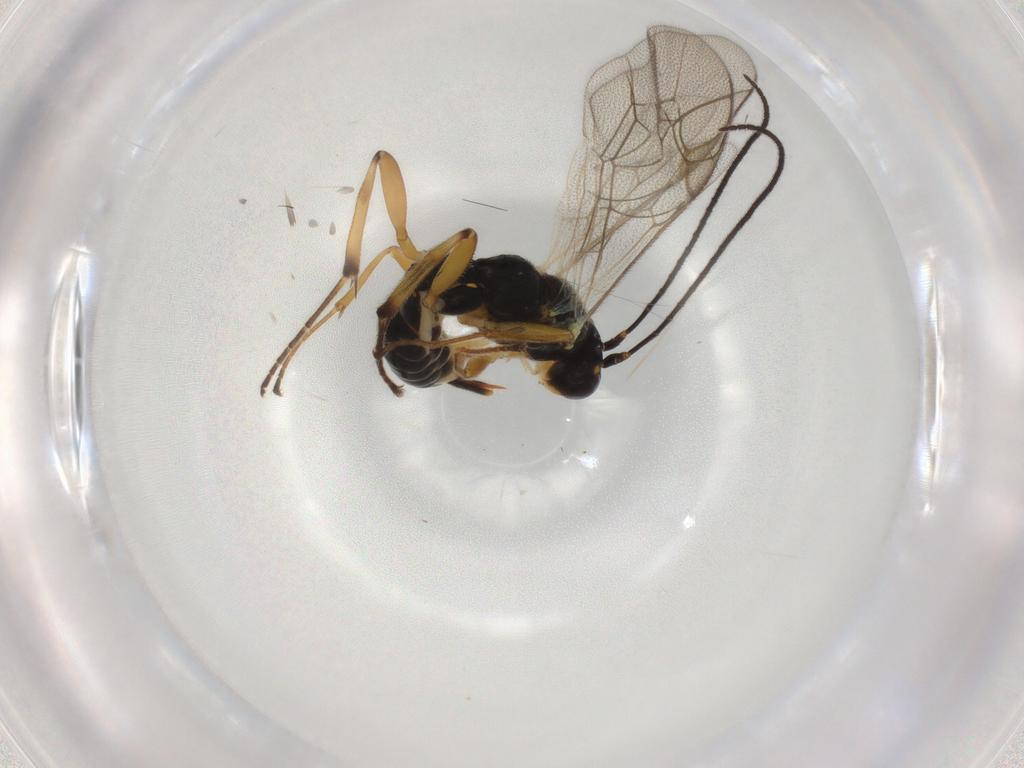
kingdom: Animalia
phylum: Arthropoda
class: Insecta
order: Hymenoptera
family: Ichneumonidae
